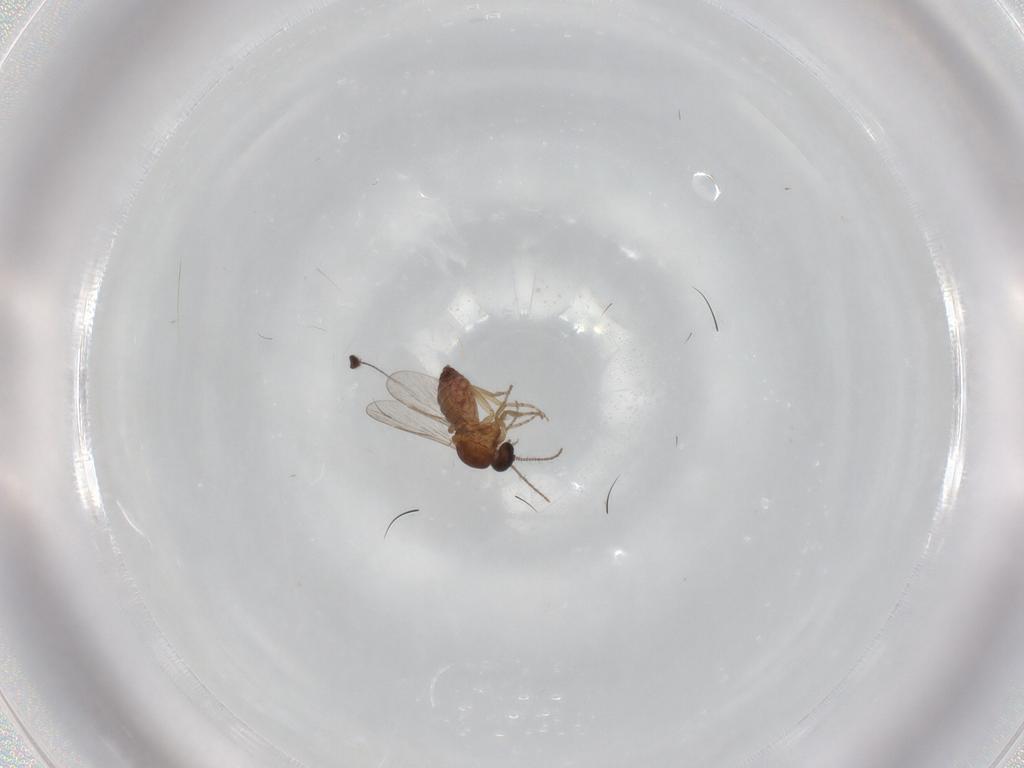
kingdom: Animalia
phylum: Arthropoda
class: Insecta
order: Diptera
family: Dolichopodidae
